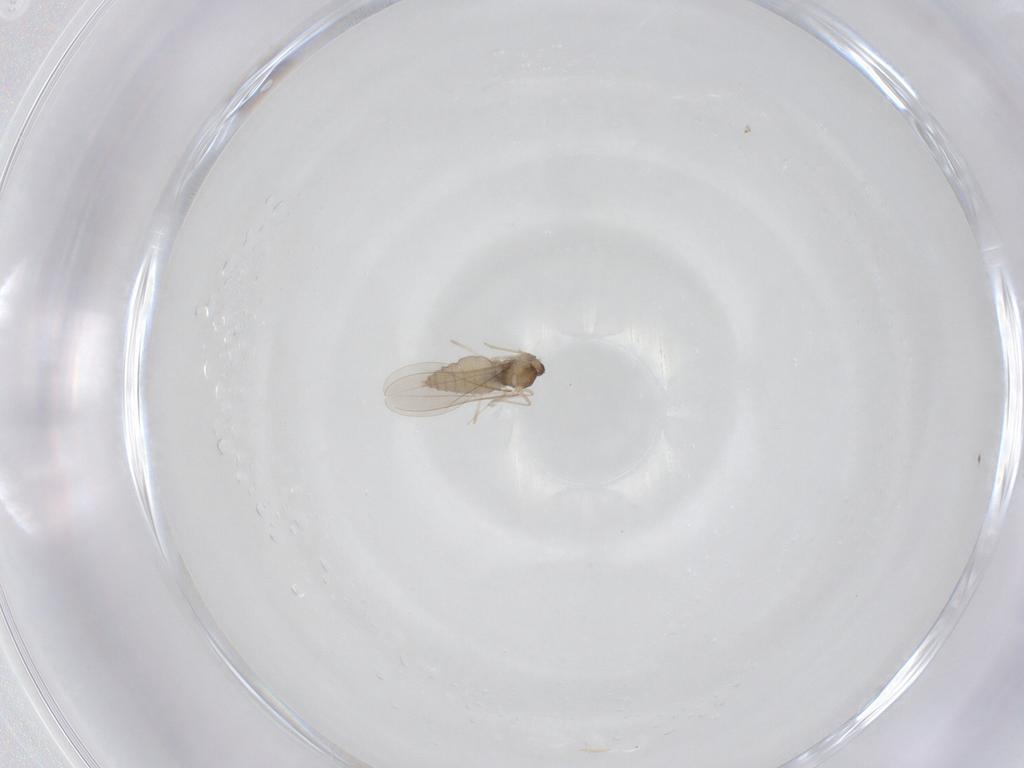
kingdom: Animalia
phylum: Arthropoda
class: Insecta
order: Diptera
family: Cecidomyiidae
